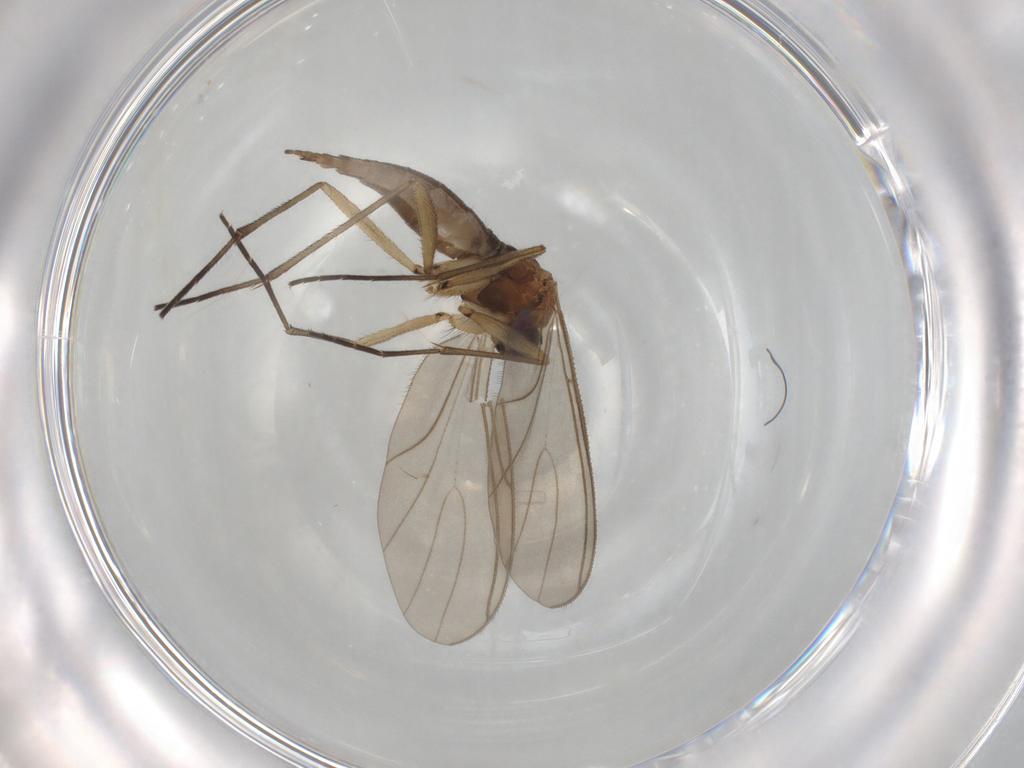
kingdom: Animalia
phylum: Arthropoda
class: Insecta
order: Diptera
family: Sciaridae
